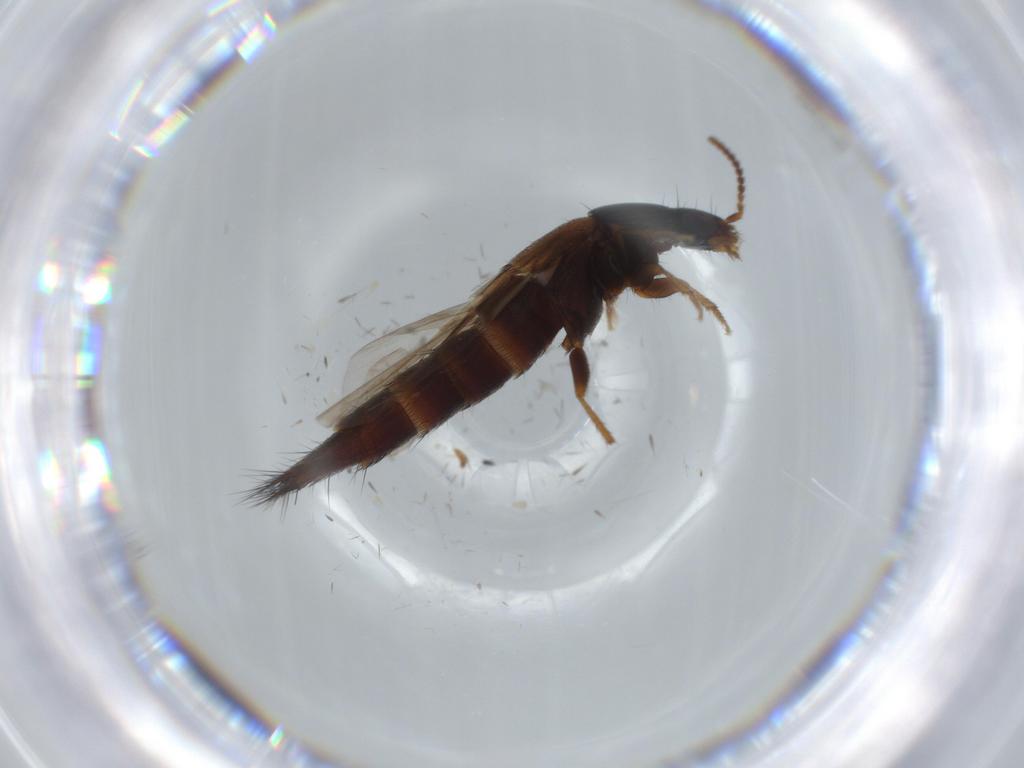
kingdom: Animalia
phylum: Arthropoda
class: Insecta
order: Coleoptera
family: Staphylinidae
